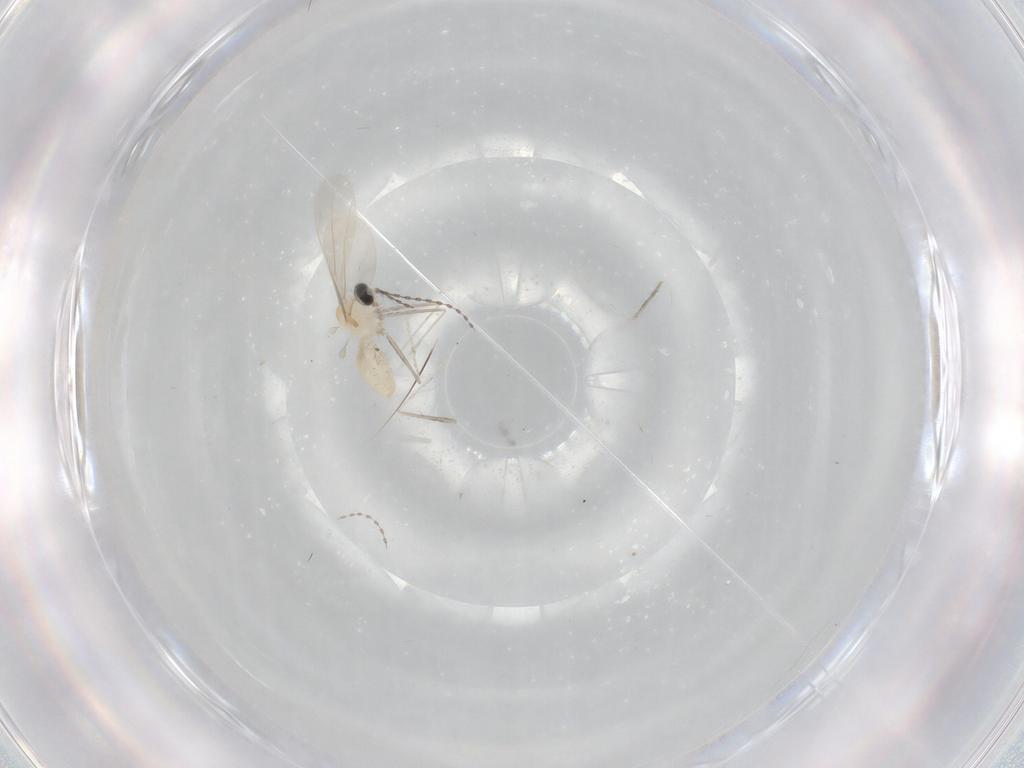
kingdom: Animalia
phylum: Arthropoda
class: Insecta
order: Diptera
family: Cecidomyiidae
